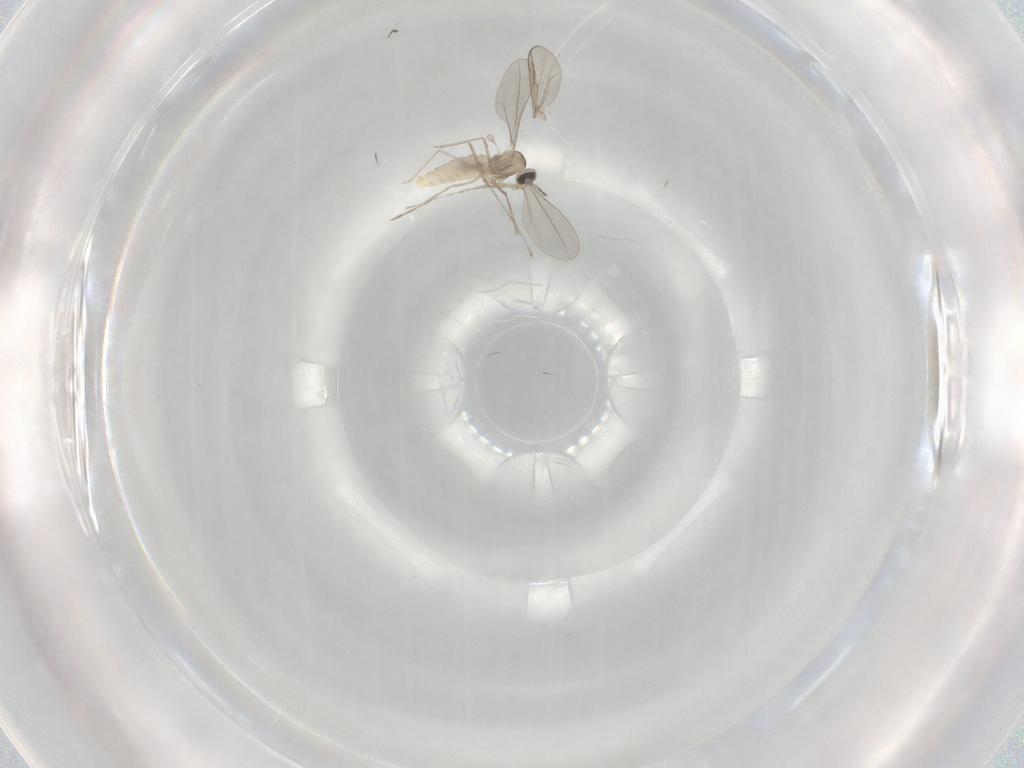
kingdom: Animalia
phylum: Arthropoda
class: Insecta
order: Diptera
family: Cecidomyiidae
